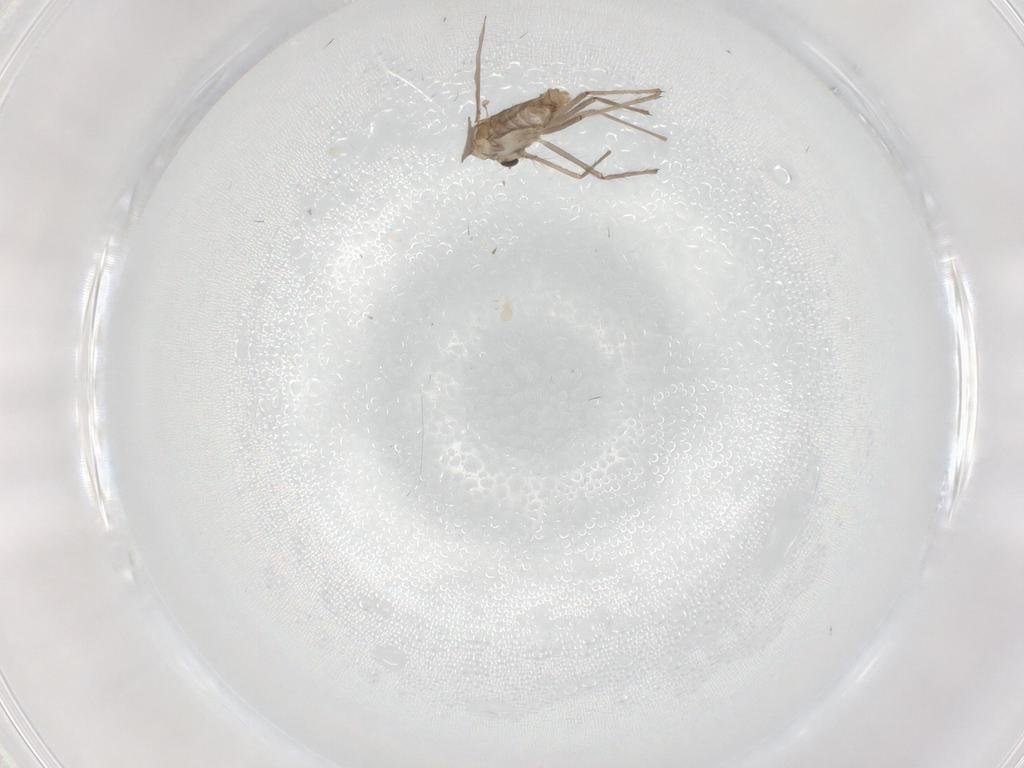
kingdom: Animalia
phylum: Arthropoda
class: Insecta
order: Diptera
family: Chironomidae
